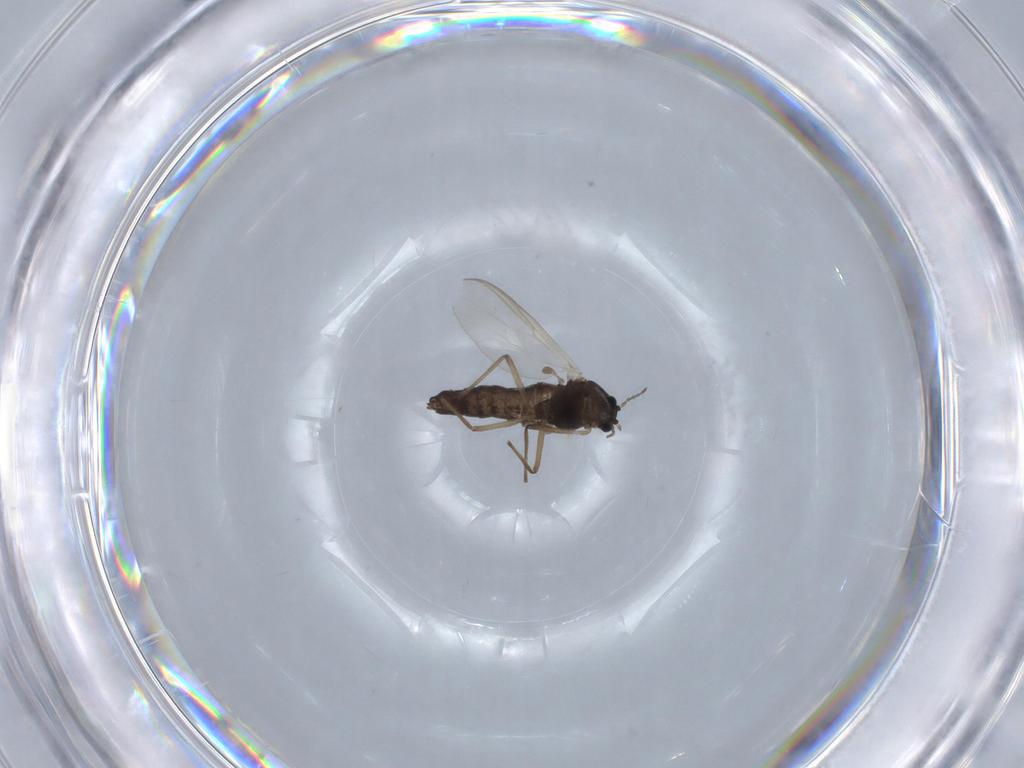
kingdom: Animalia
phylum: Arthropoda
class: Insecta
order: Diptera
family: Chironomidae
